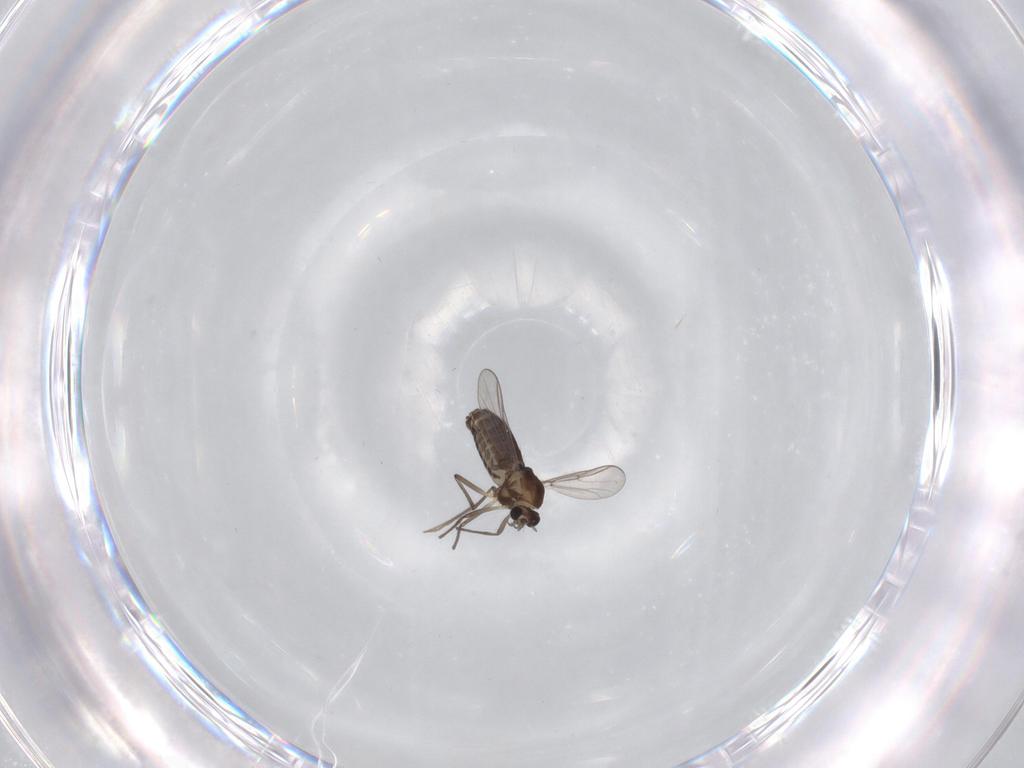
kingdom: Animalia
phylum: Arthropoda
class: Insecta
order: Diptera
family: Chironomidae
